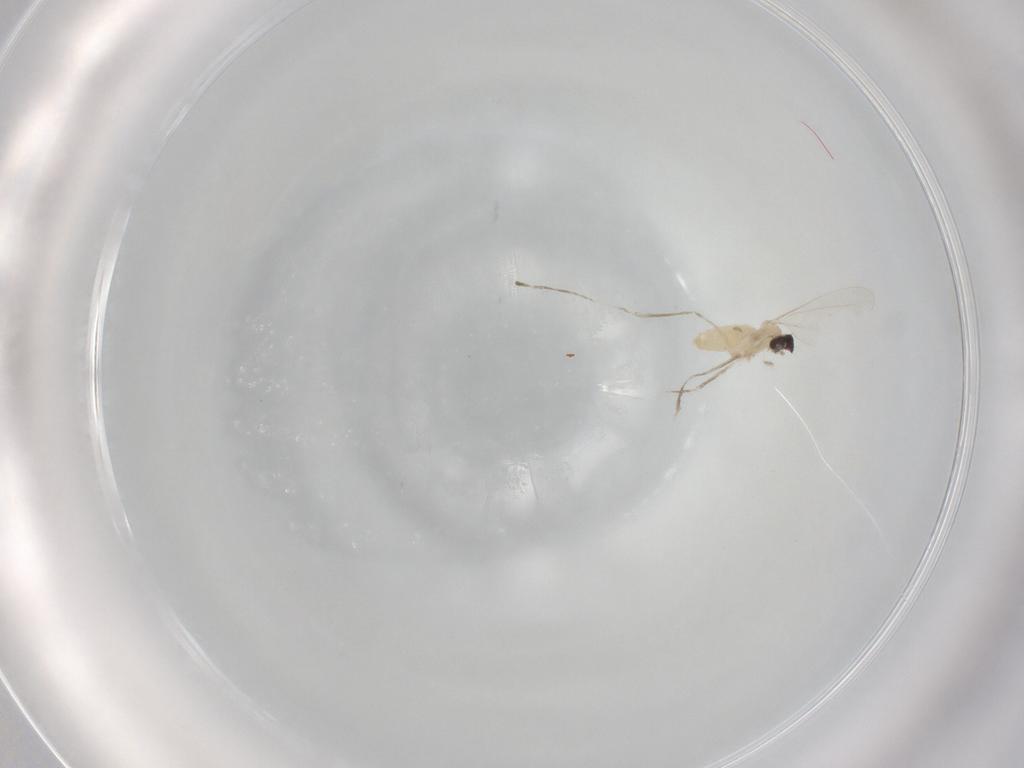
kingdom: Animalia
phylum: Arthropoda
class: Insecta
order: Diptera
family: Cecidomyiidae
